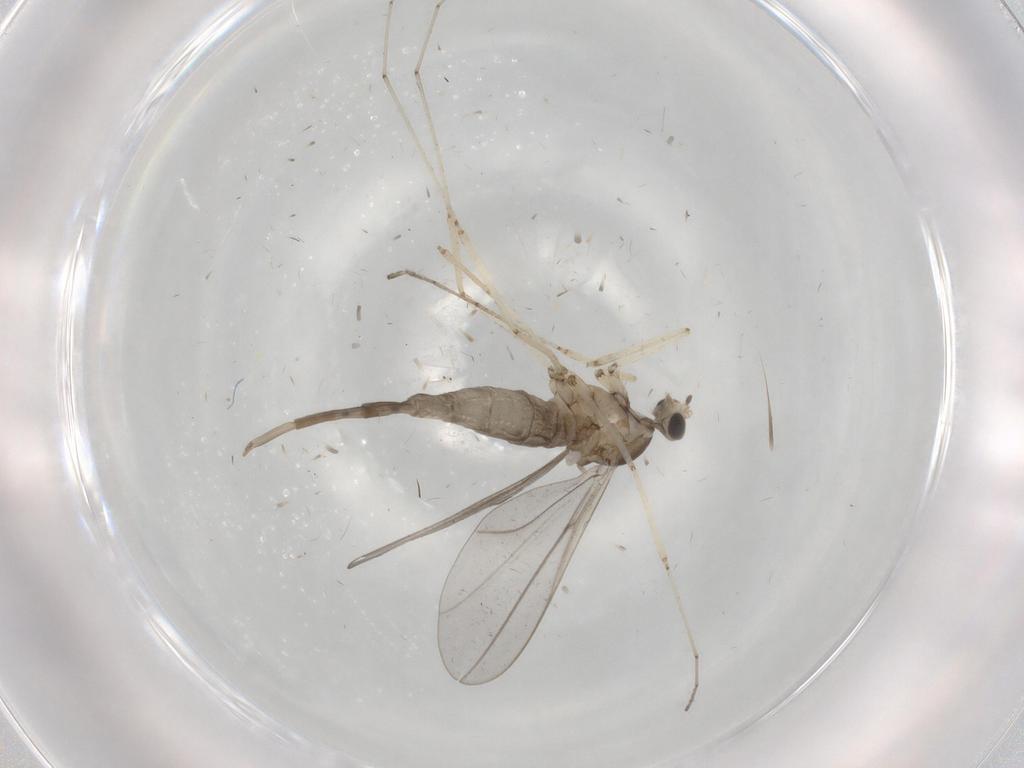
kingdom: Animalia
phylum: Arthropoda
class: Insecta
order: Diptera
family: Cecidomyiidae
